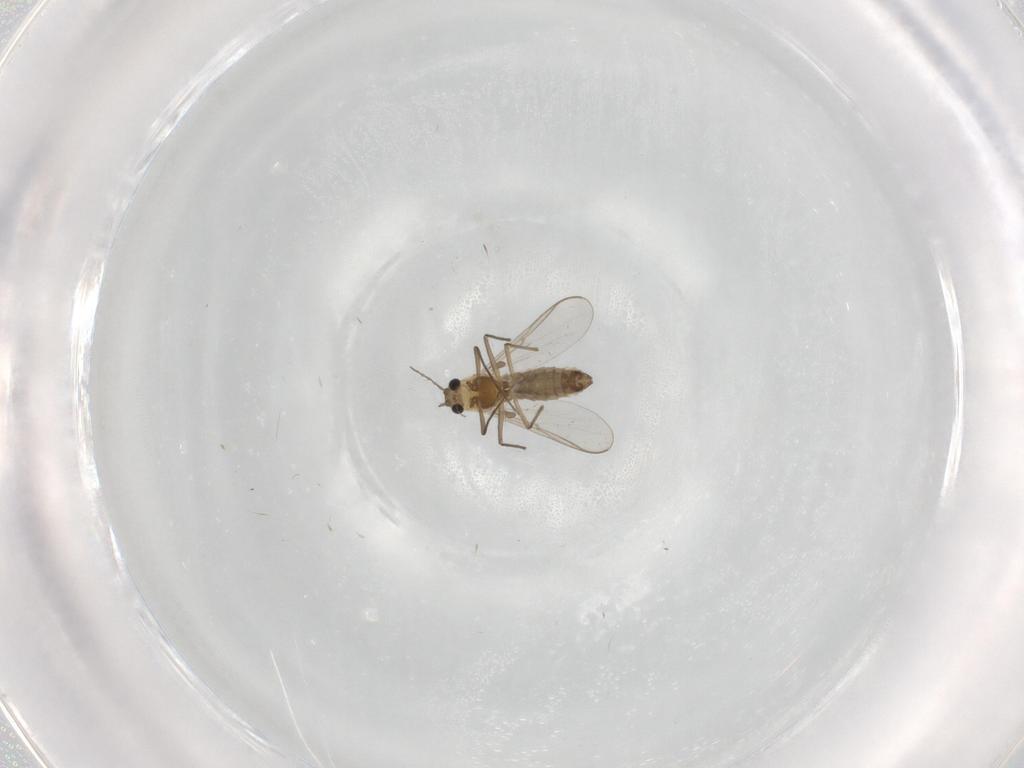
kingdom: Animalia
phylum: Arthropoda
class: Insecta
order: Diptera
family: Chironomidae
